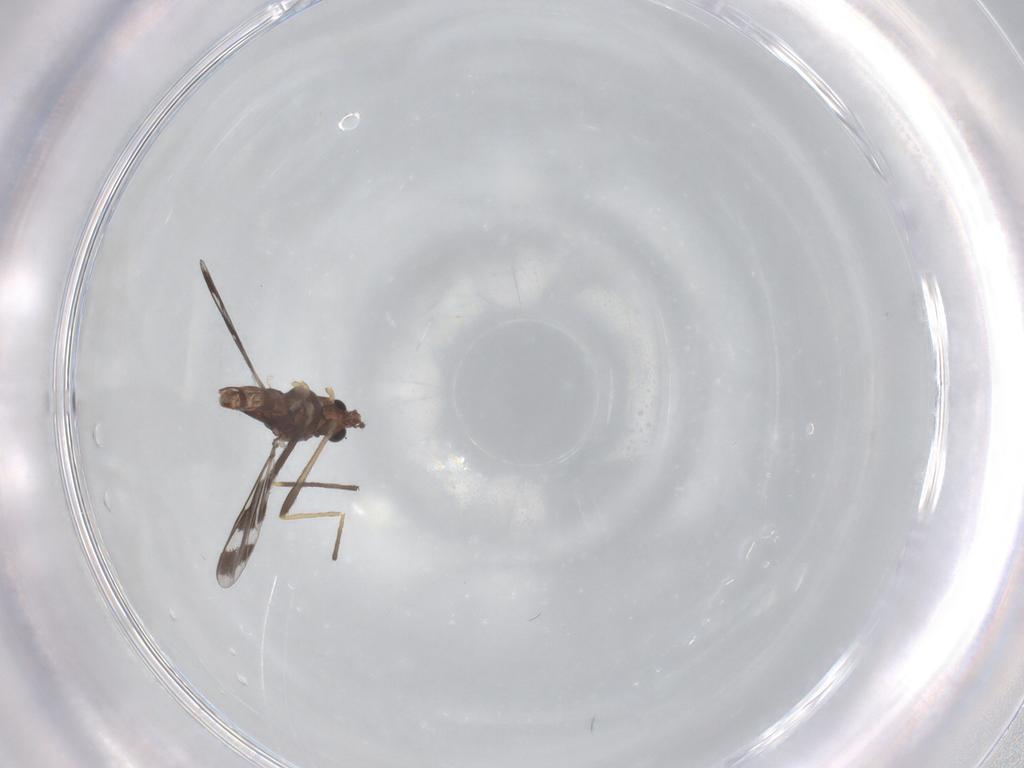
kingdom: Animalia
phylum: Arthropoda
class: Insecta
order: Diptera
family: Chironomidae
